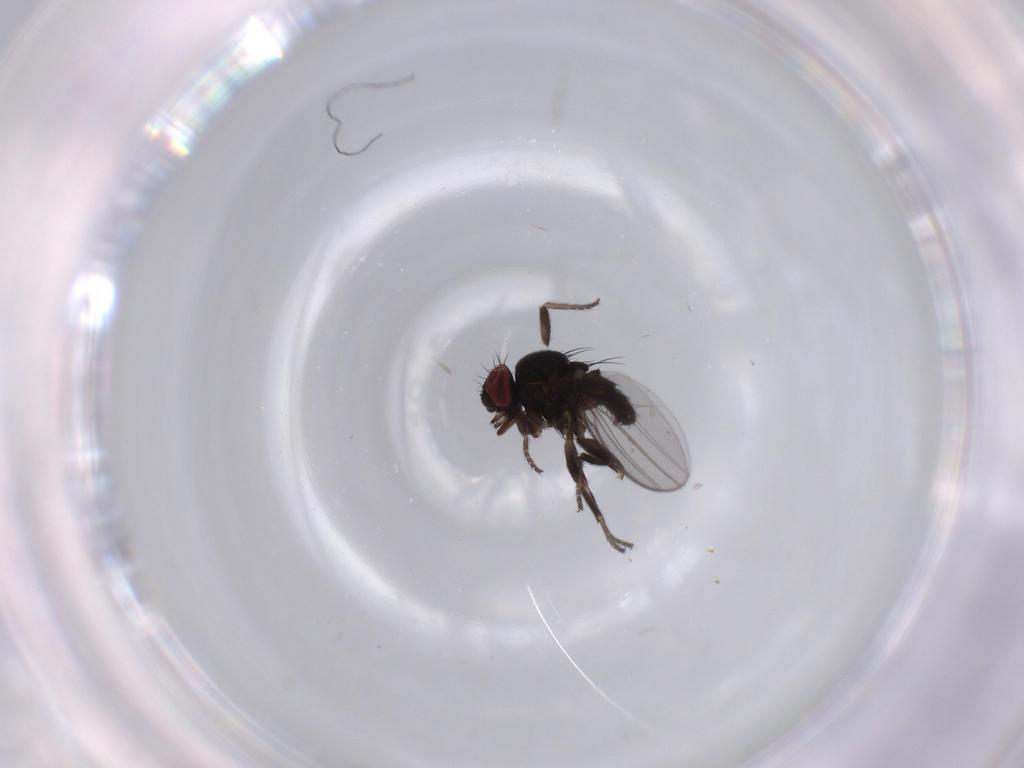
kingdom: Animalia
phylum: Arthropoda
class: Insecta
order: Diptera
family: Milichiidae
